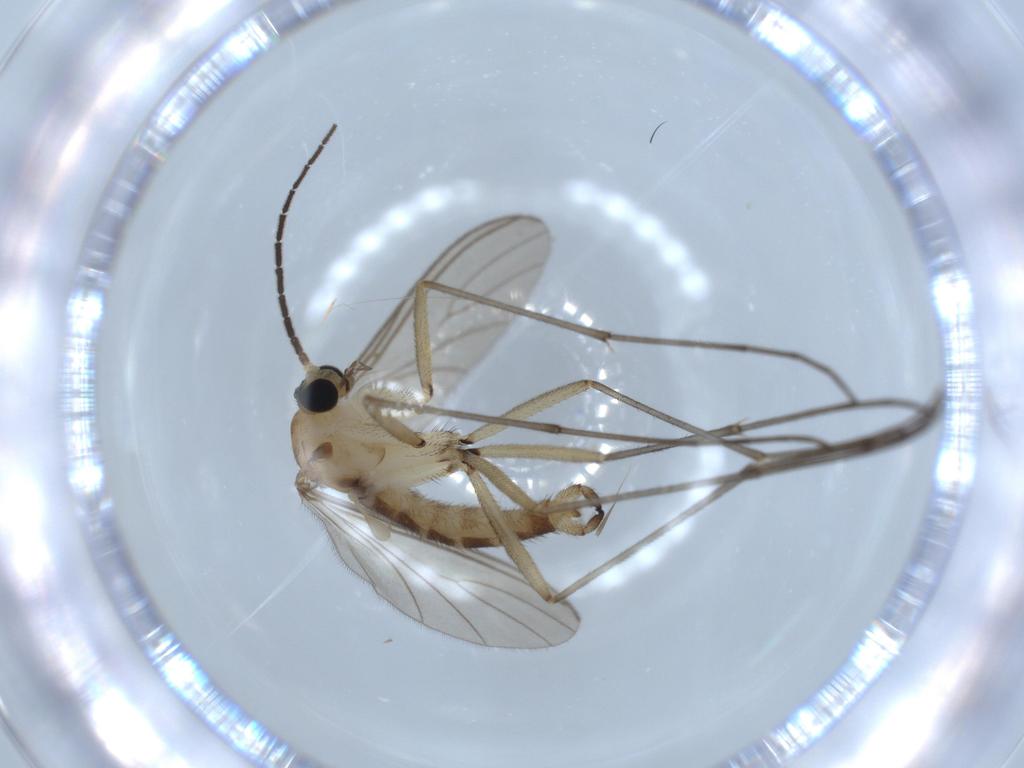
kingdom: Animalia
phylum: Arthropoda
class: Insecta
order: Diptera
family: Sciaridae
